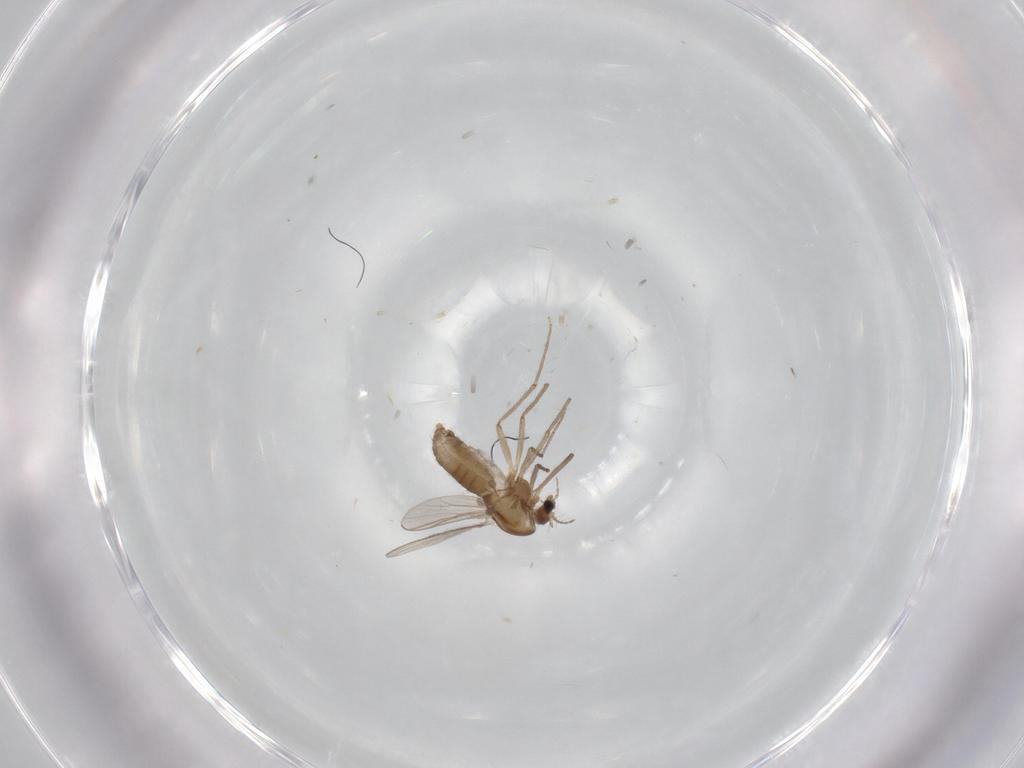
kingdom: Animalia
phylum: Arthropoda
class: Insecta
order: Diptera
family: Chironomidae
